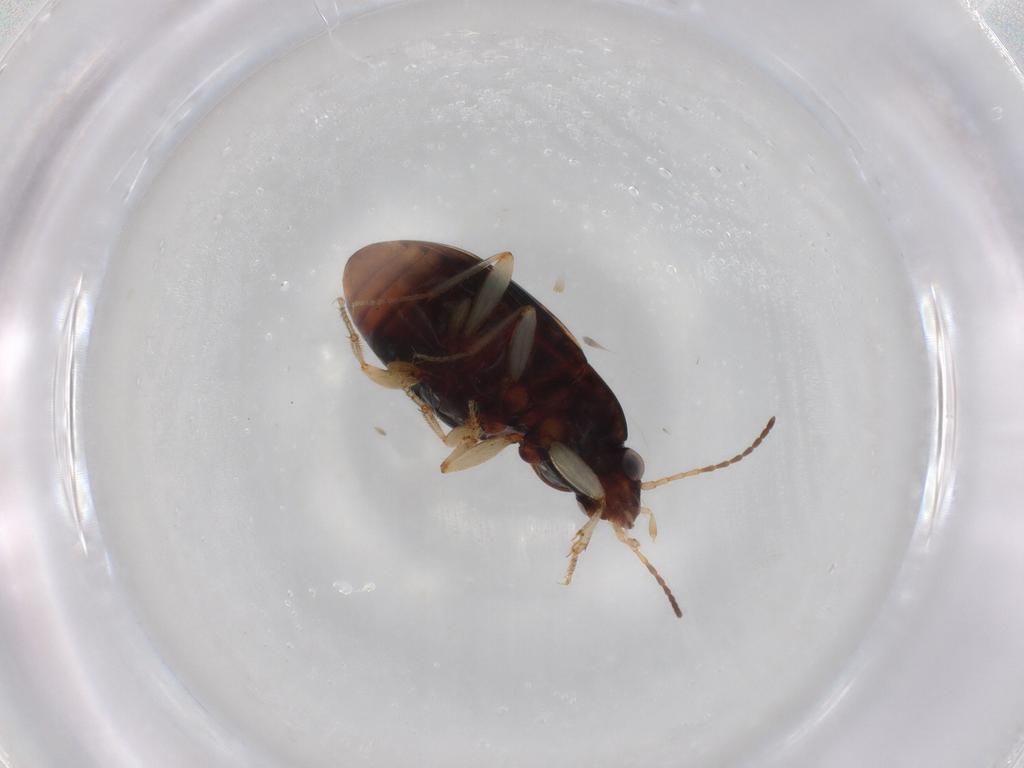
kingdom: Animalia
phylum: Arthropoda
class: Insecta
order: Coleoptera
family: Carabidae
